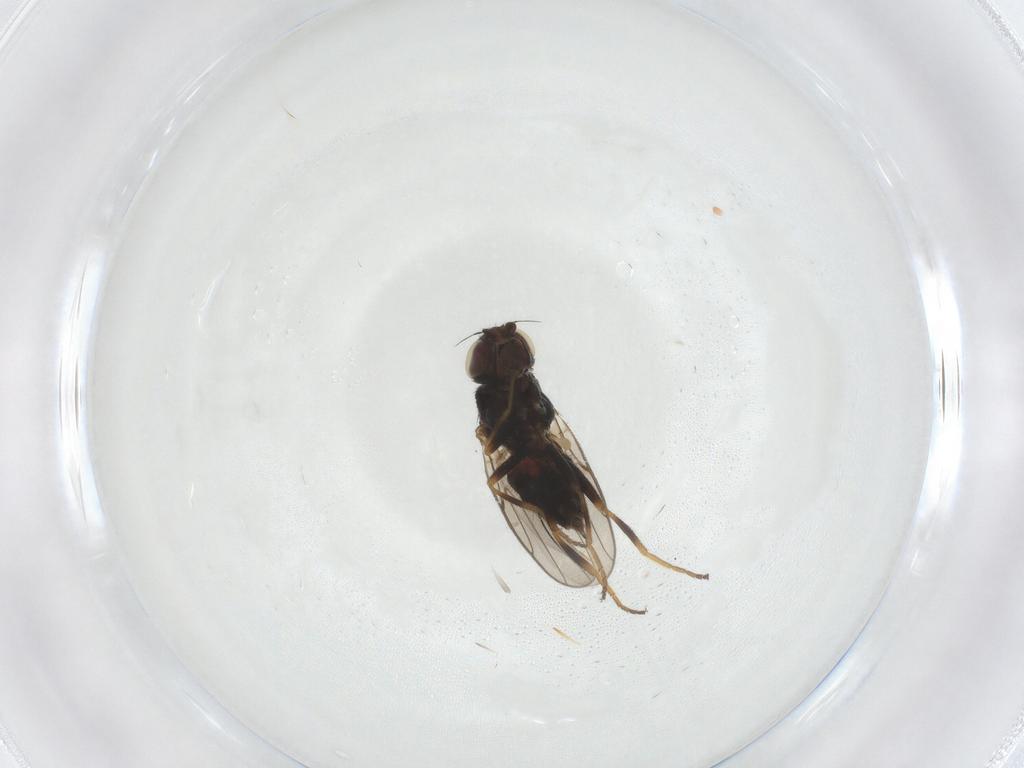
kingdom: Animalia
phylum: Arthropoda
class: Insecta
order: Diptera
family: Chloropidae
